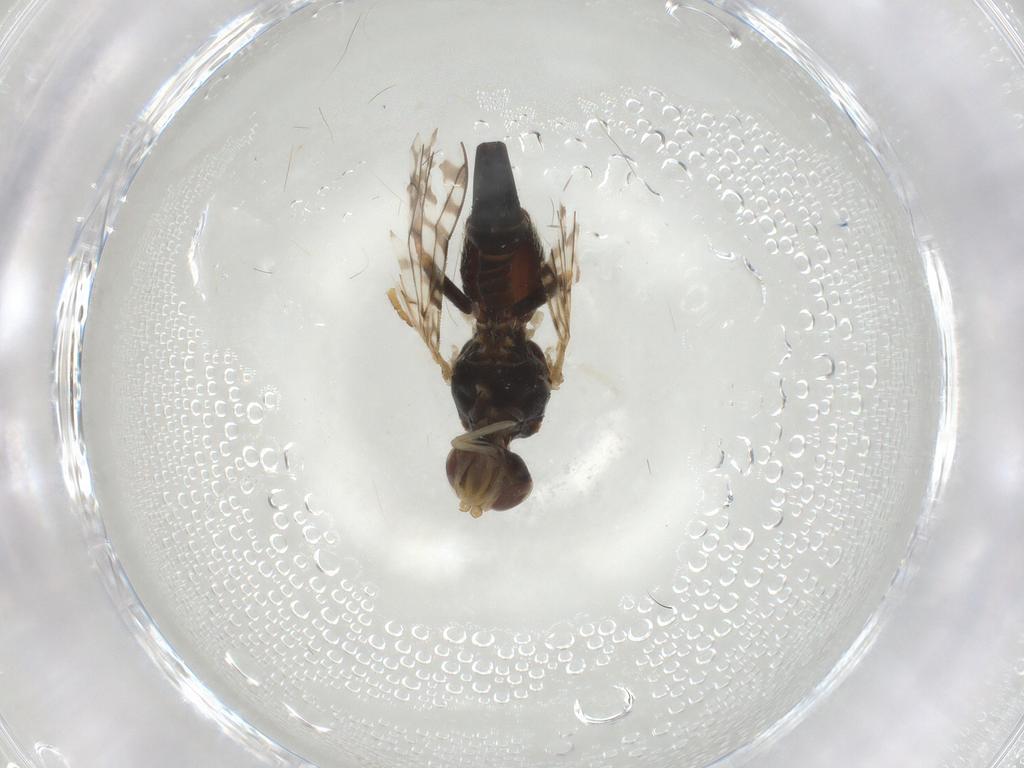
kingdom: Animalia
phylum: Arthropoda
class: Insecta
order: Diptera
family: Tephritidae
